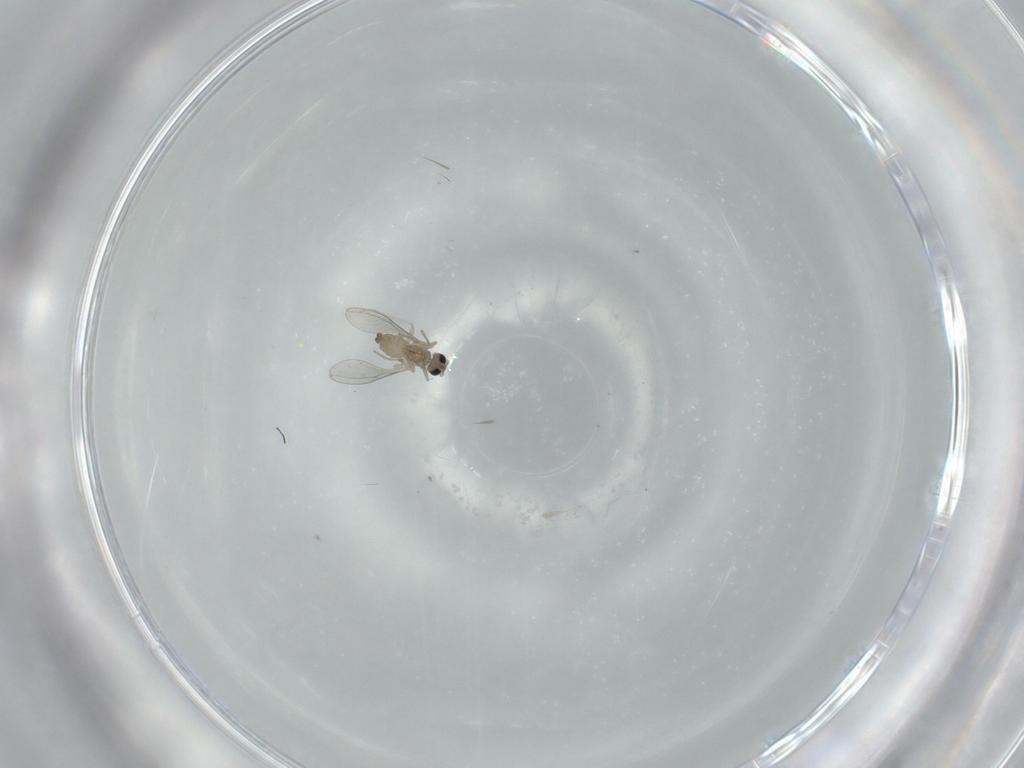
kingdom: Animalia
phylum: Arthropoda
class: Insecta
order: Diptera
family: Cecidomyiidae
